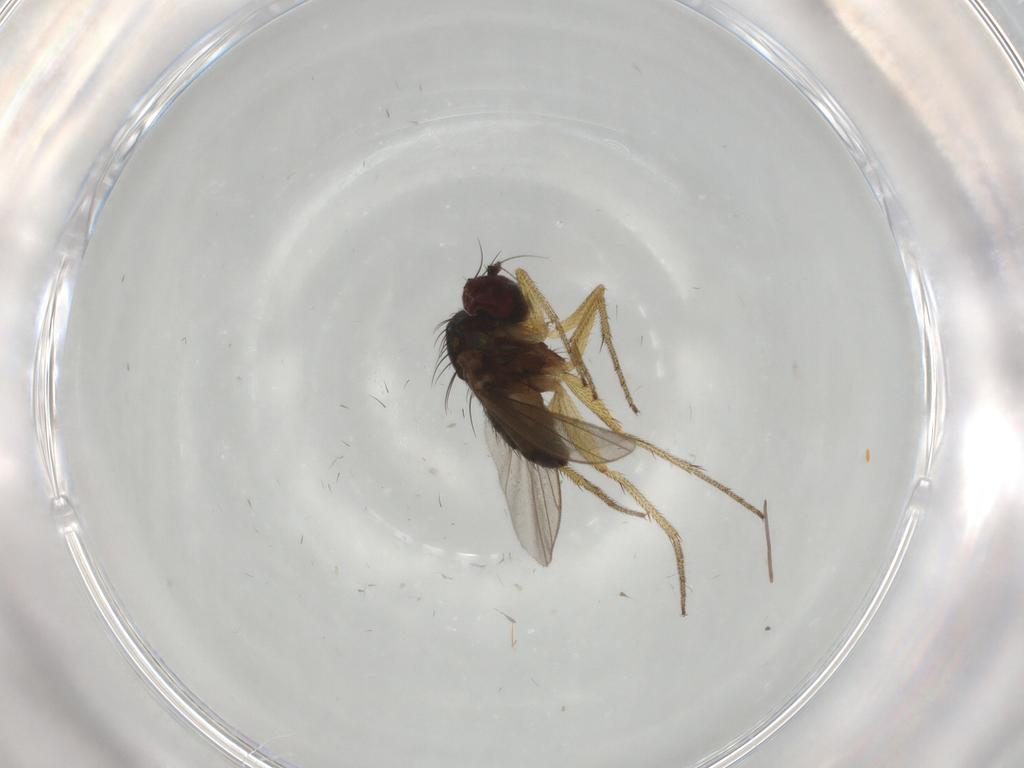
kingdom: Animalia
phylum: Arthropoda
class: Insecta
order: Diptera
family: Dolichopodidae
